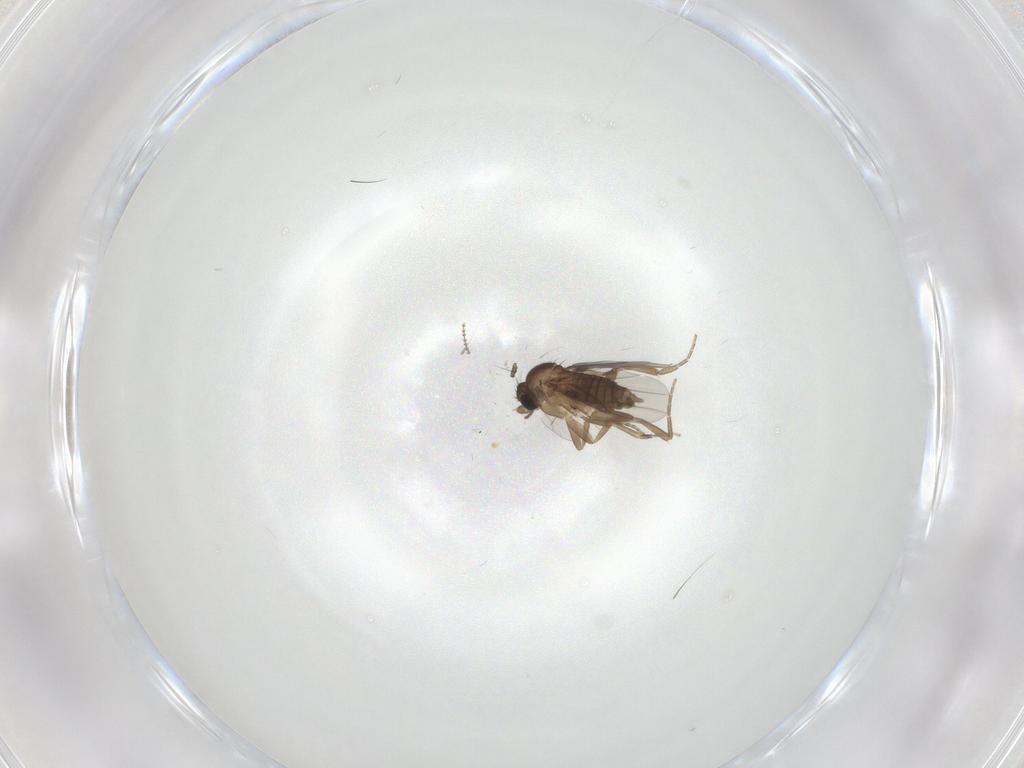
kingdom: Animalia
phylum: Arthropoda
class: Insecta
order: Diptera
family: Phoridae
